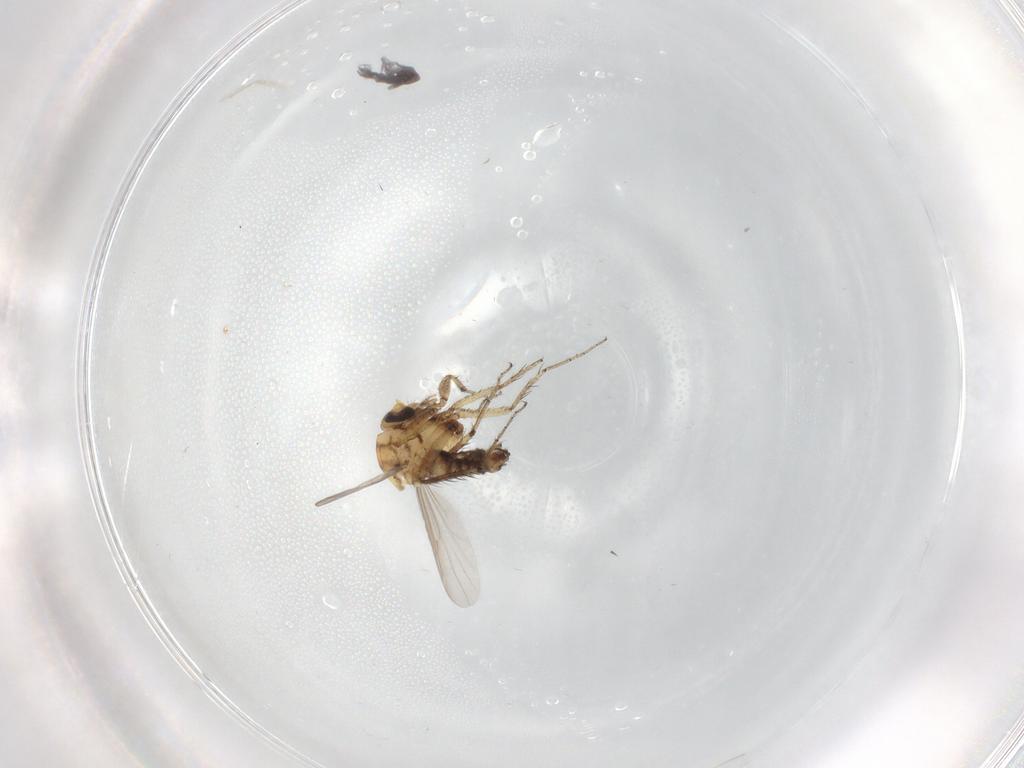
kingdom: Animalia
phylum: Arthropoda
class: Insecta
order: Diptera
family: Ceratopogonidae
